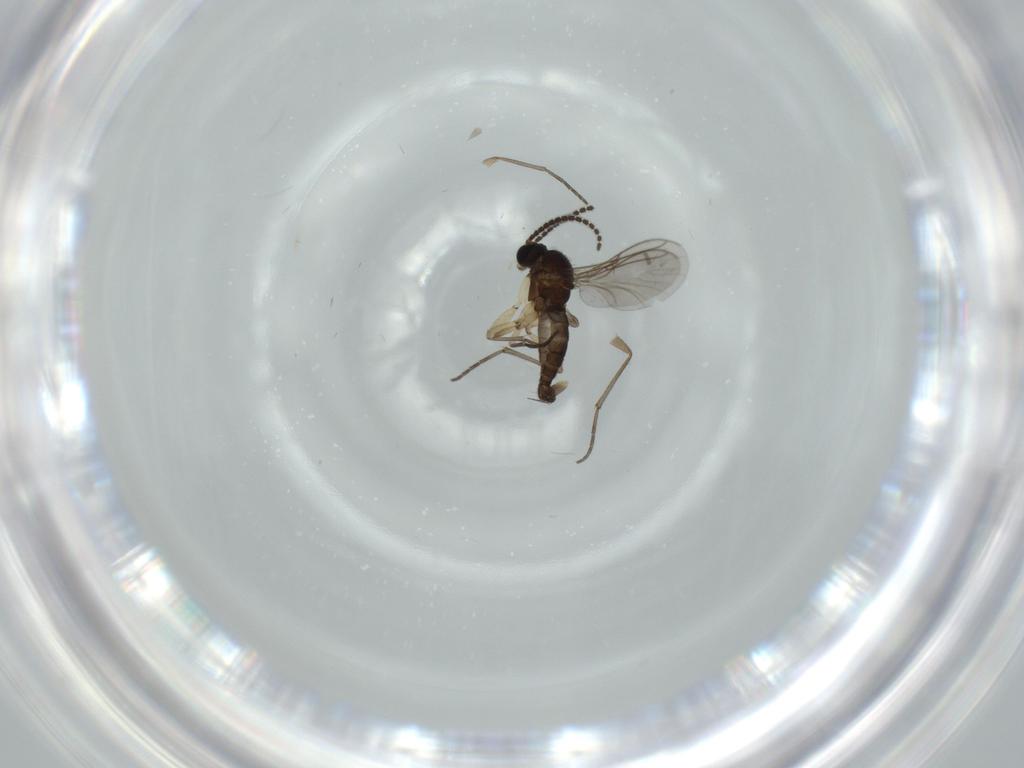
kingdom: Animalia
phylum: Arthropoda
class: Insecta
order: Diptera
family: Sciaridae
